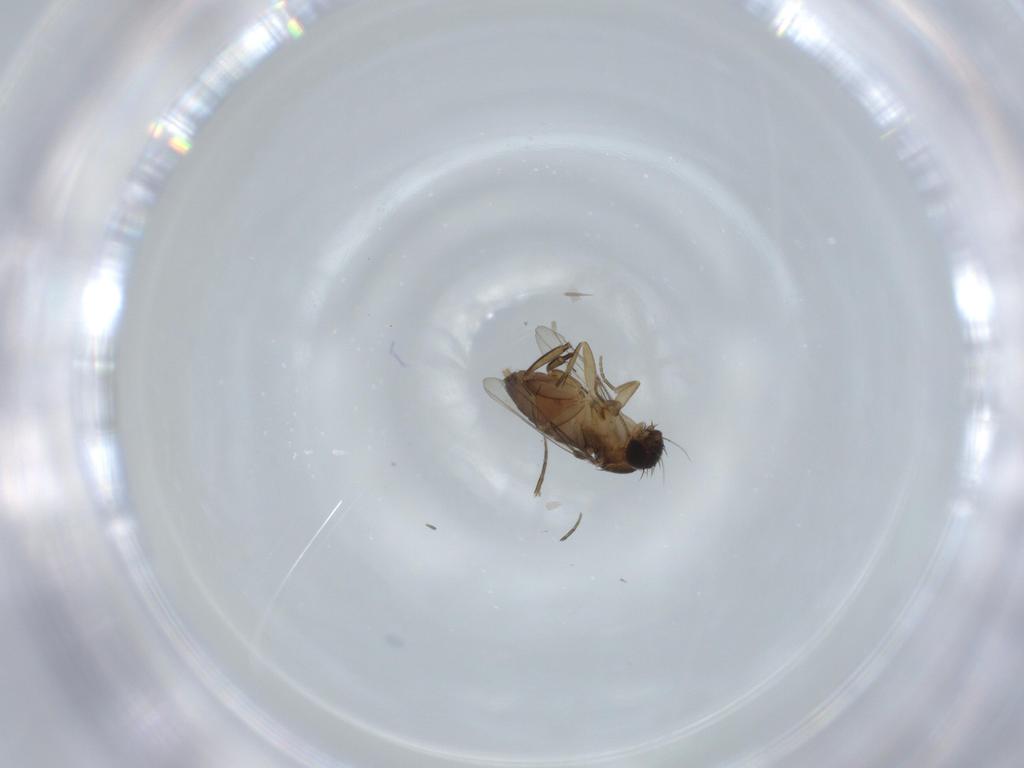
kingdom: Animalia
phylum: Arthropoda
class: Insecta
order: Diptera
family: Phoridae
